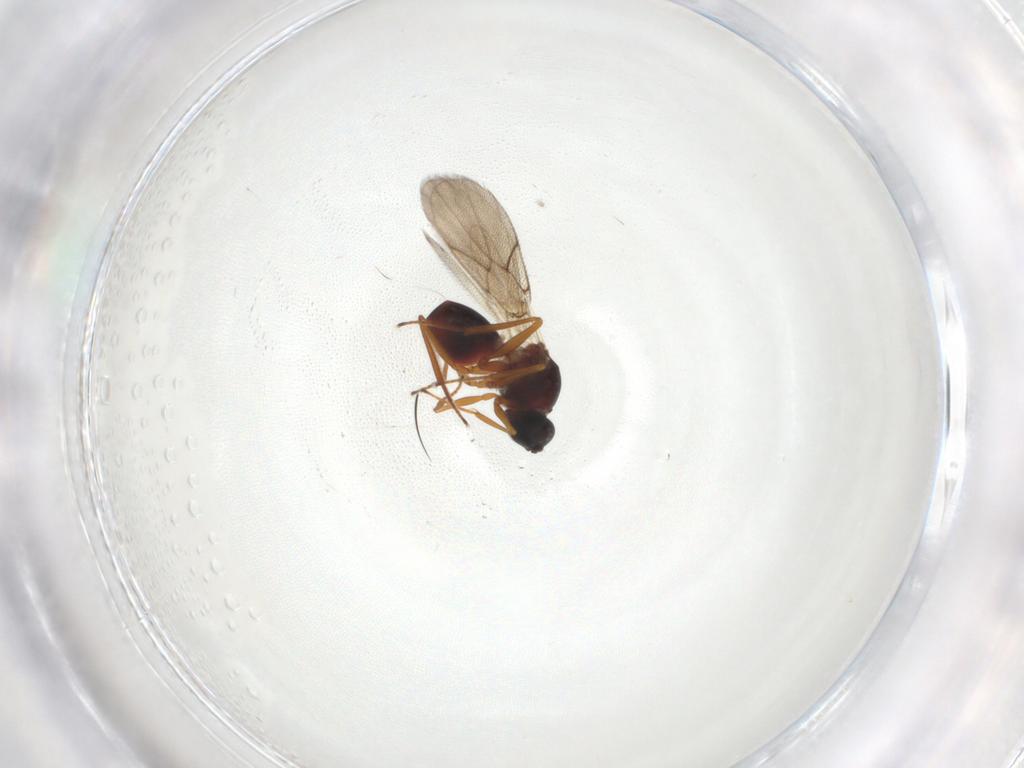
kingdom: Animalia
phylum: Arthropoda
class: Insecta
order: Hymenoptera
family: Figitidae
